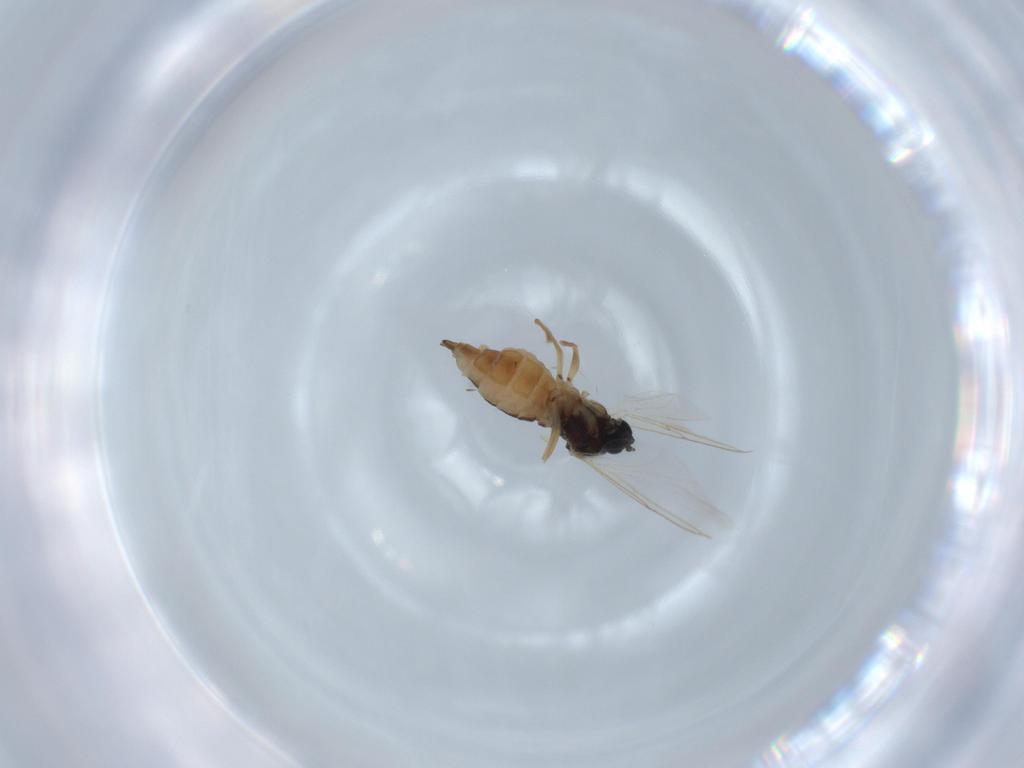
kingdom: Animalia
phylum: Arthropoda
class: Insecta
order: Diptera
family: Sciaridae
